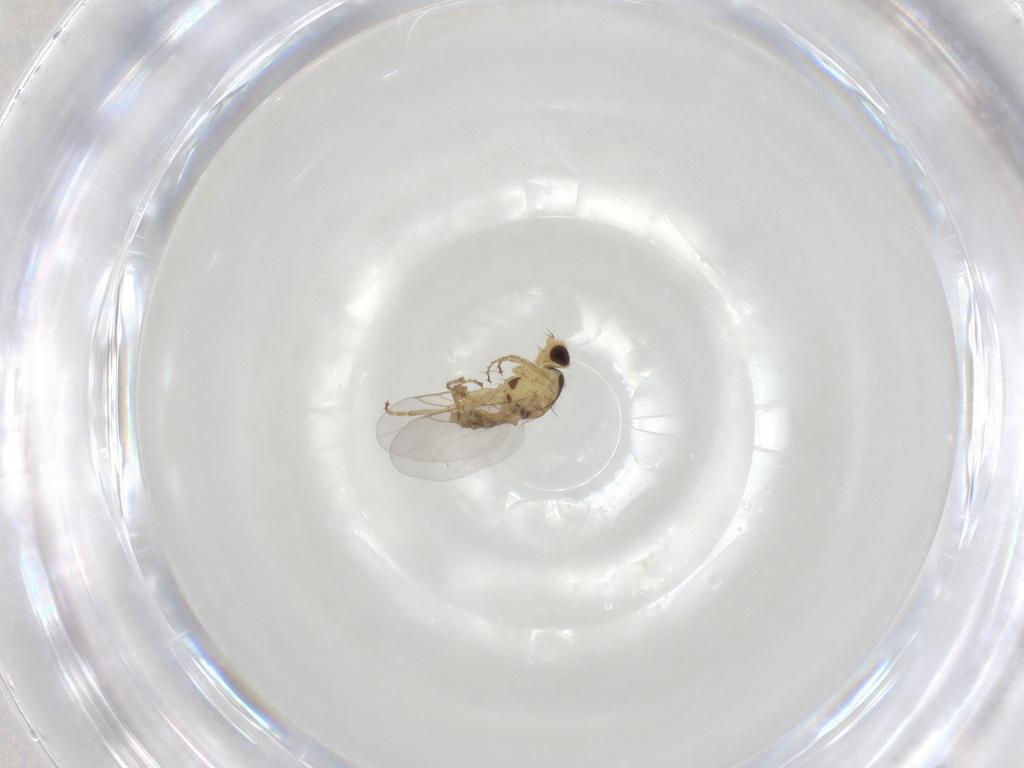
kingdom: Animalia
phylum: Arthropoda
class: Insecta
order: Diptera
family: Agromyzidae
